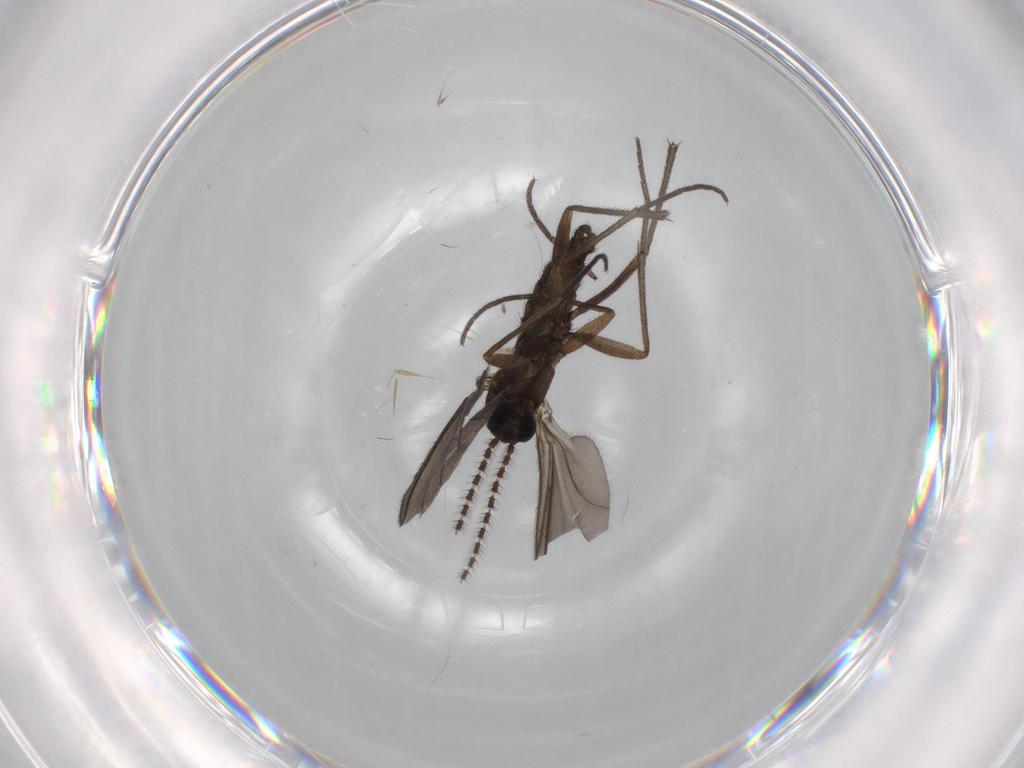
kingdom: Animalia
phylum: Arthropoda
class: Insecta
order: Diptera
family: Sciaridae
